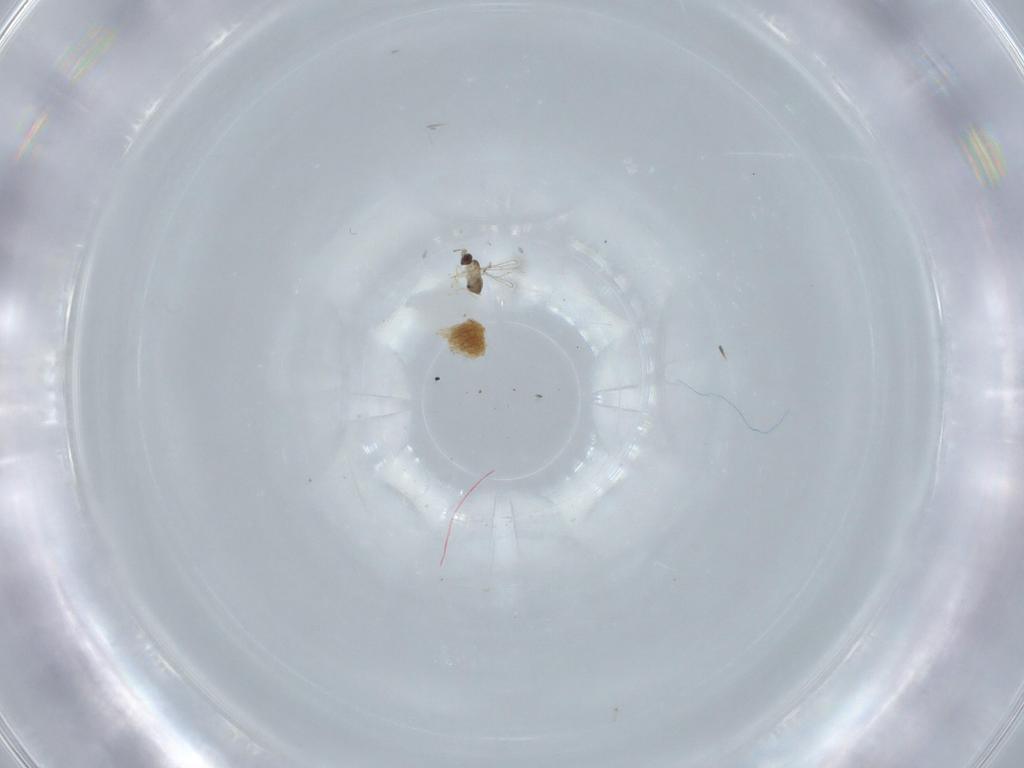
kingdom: Animalia
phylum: Arthropoda
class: Insecta
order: Hymenoptera
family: Mymaridae
